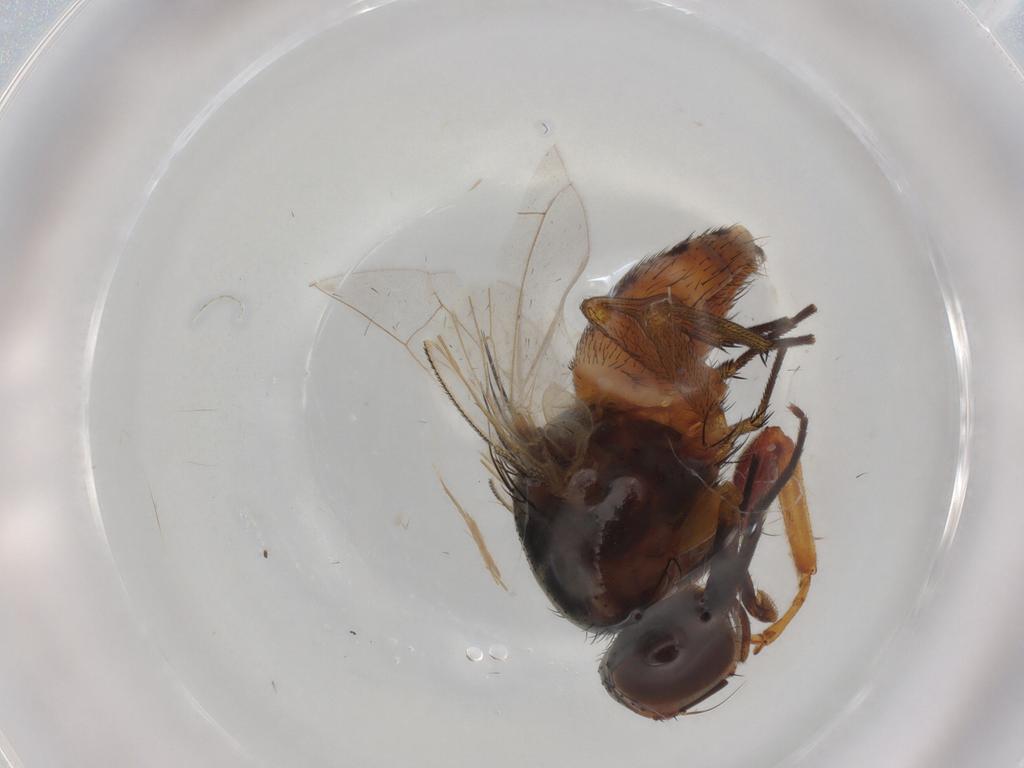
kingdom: Animalia
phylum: Arthropoda
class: Insecta
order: Diptera
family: Muscidae
